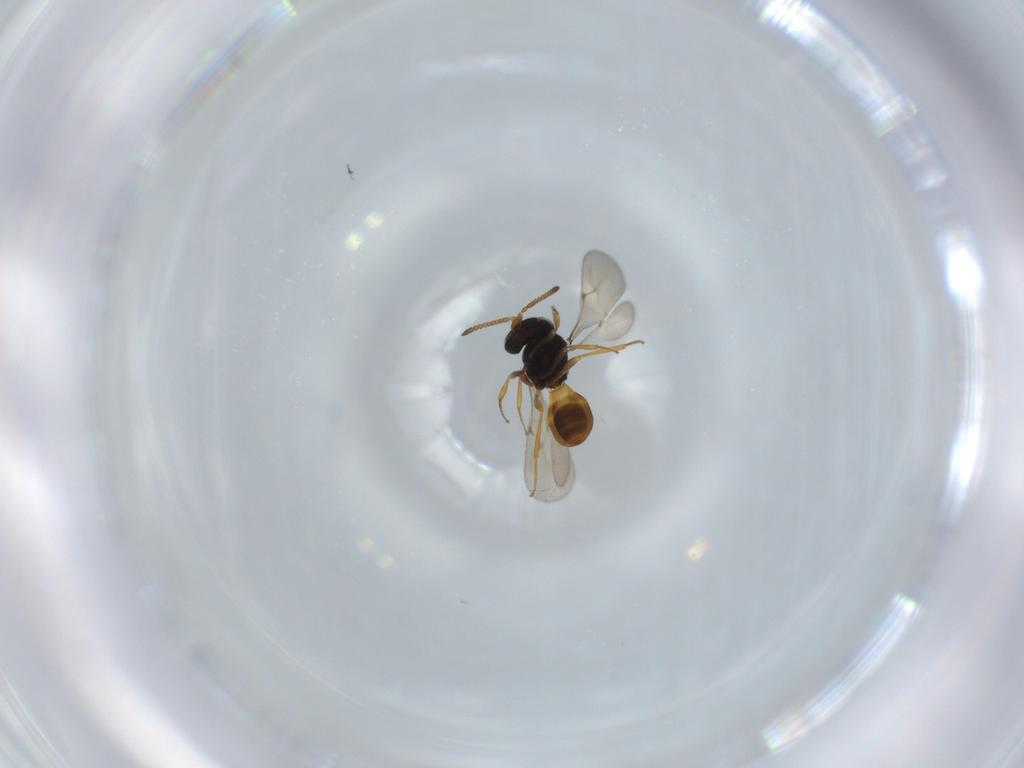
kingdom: Animalia
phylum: Arthropoda
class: Insecta
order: Hymenoptera
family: Scelionidae
